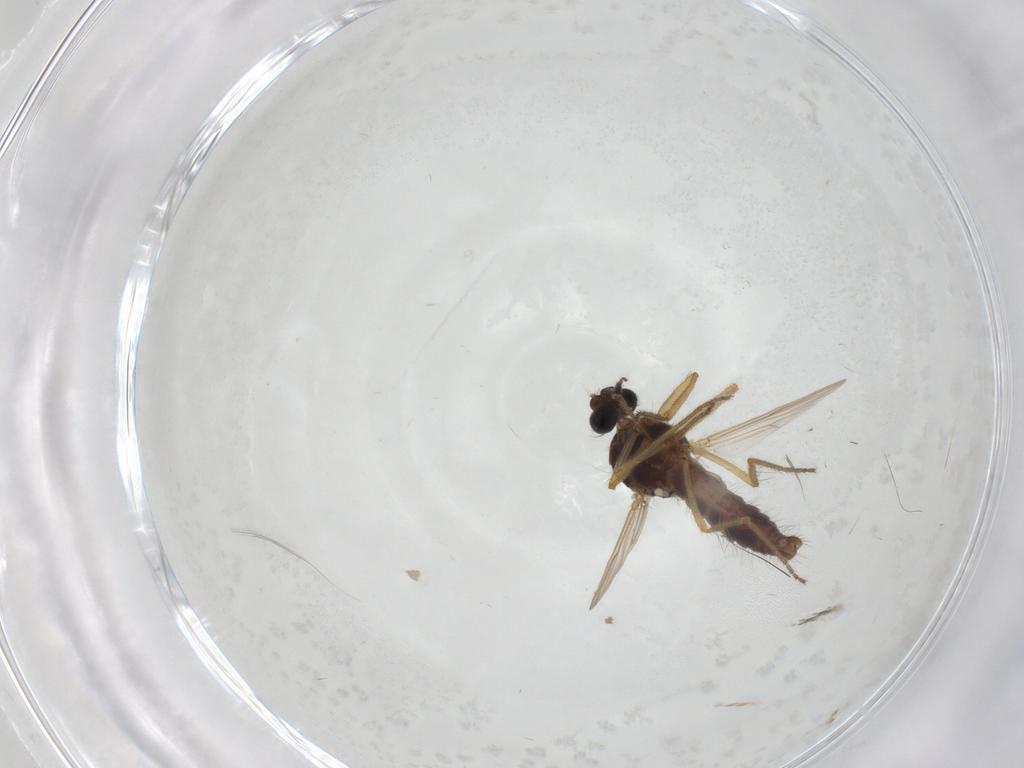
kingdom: Animalia
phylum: Arthropoda
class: Insecta
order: Diptera
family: Ceratopogonidae
